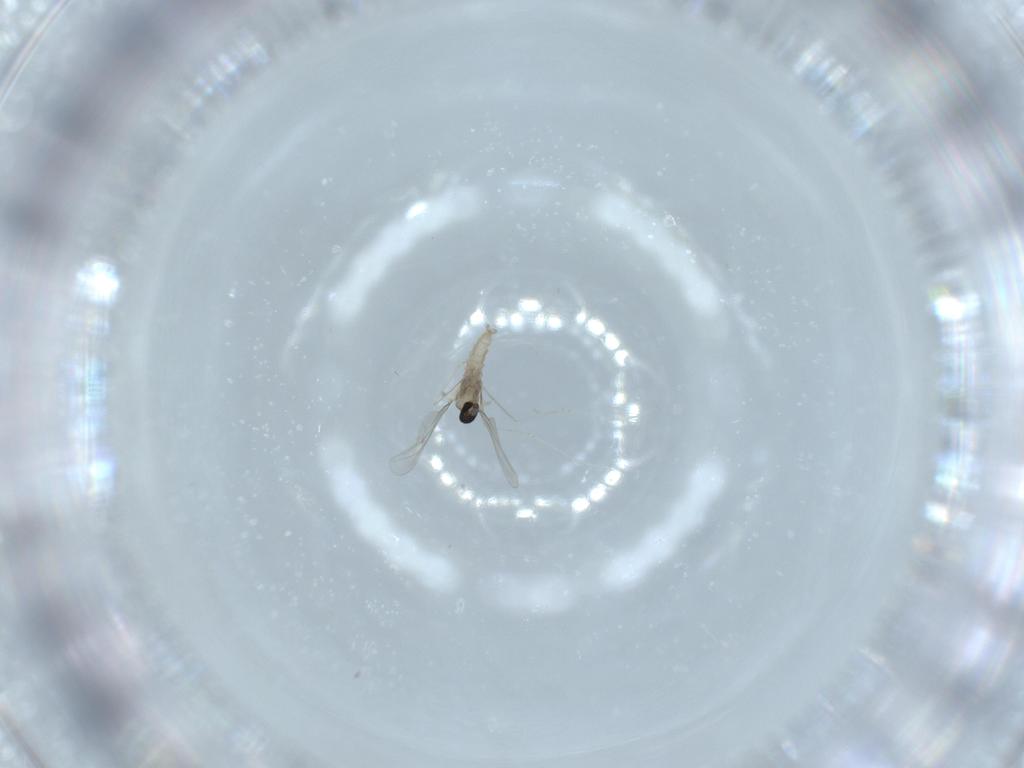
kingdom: Animalia
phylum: Arthropoda
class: Insecta
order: Diptera
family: Cecidomyiidae
